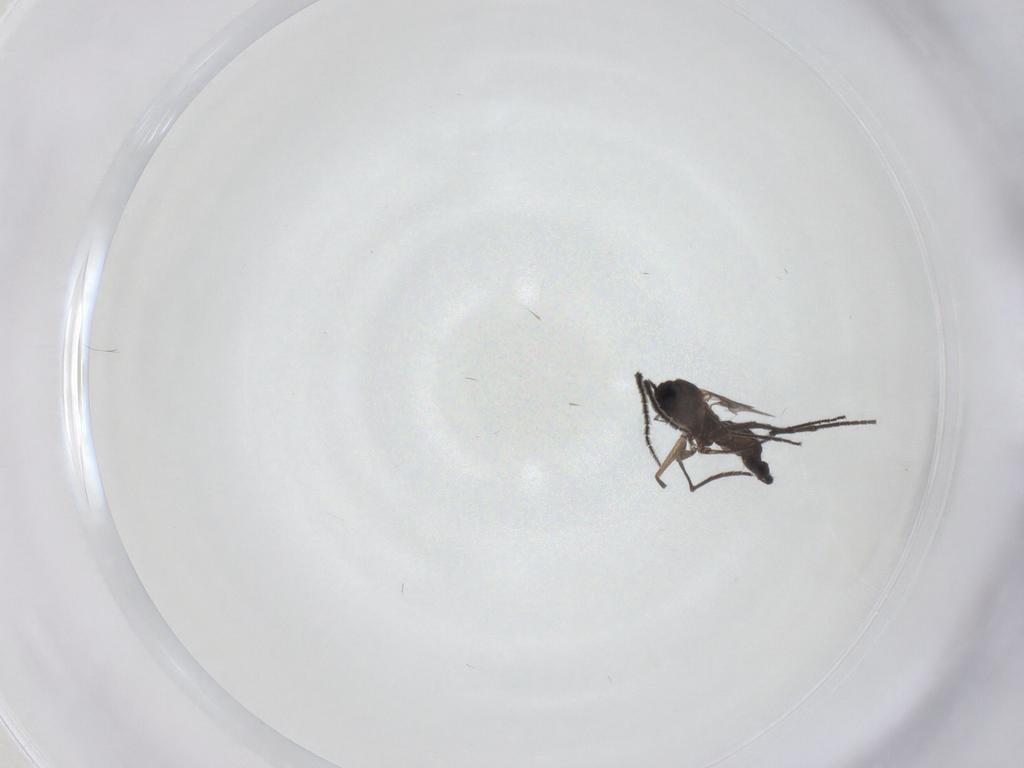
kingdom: Animalia
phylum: Arthropoda
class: Insecta
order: Diptera
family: Sciaridae
